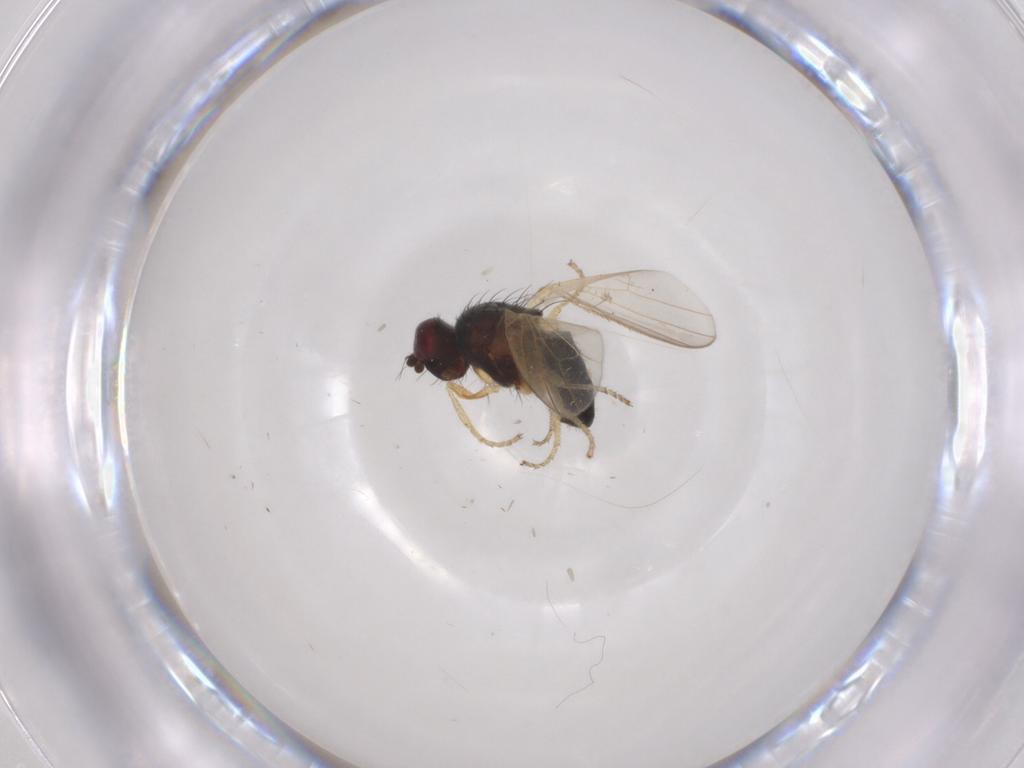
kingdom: Animalia
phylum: Arthropoda
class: Insecta
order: Diptera
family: Heleomyzidae
